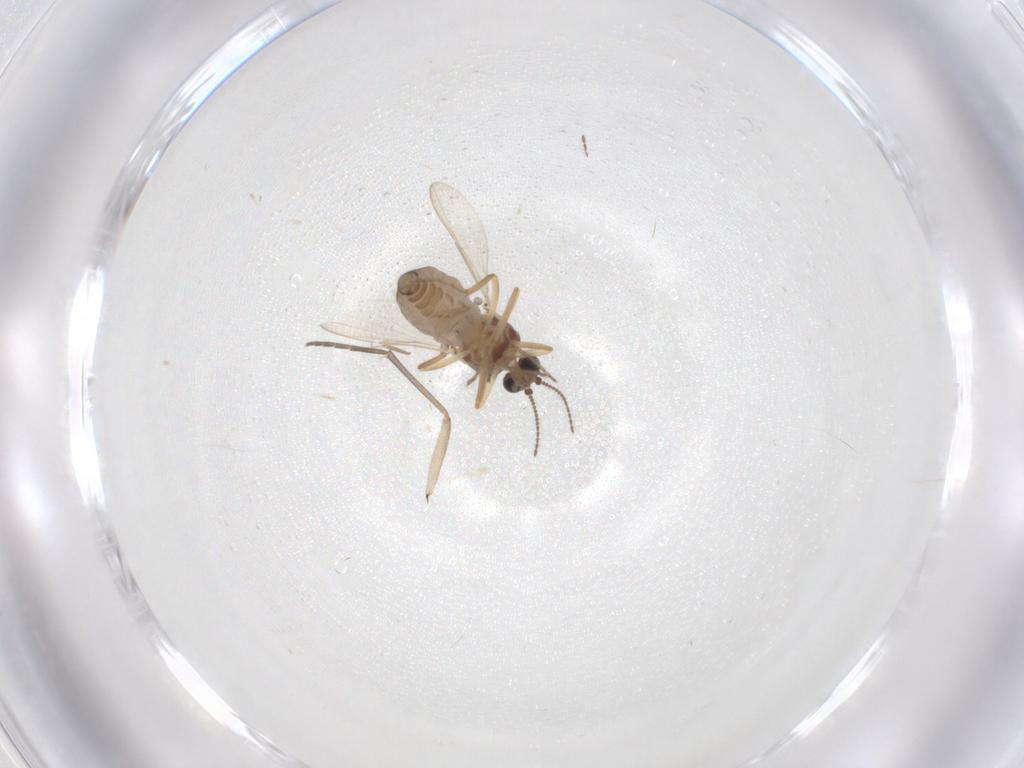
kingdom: Animalia
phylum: Arthropoda
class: Insecta
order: Diptera
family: Ceratopogonidae
